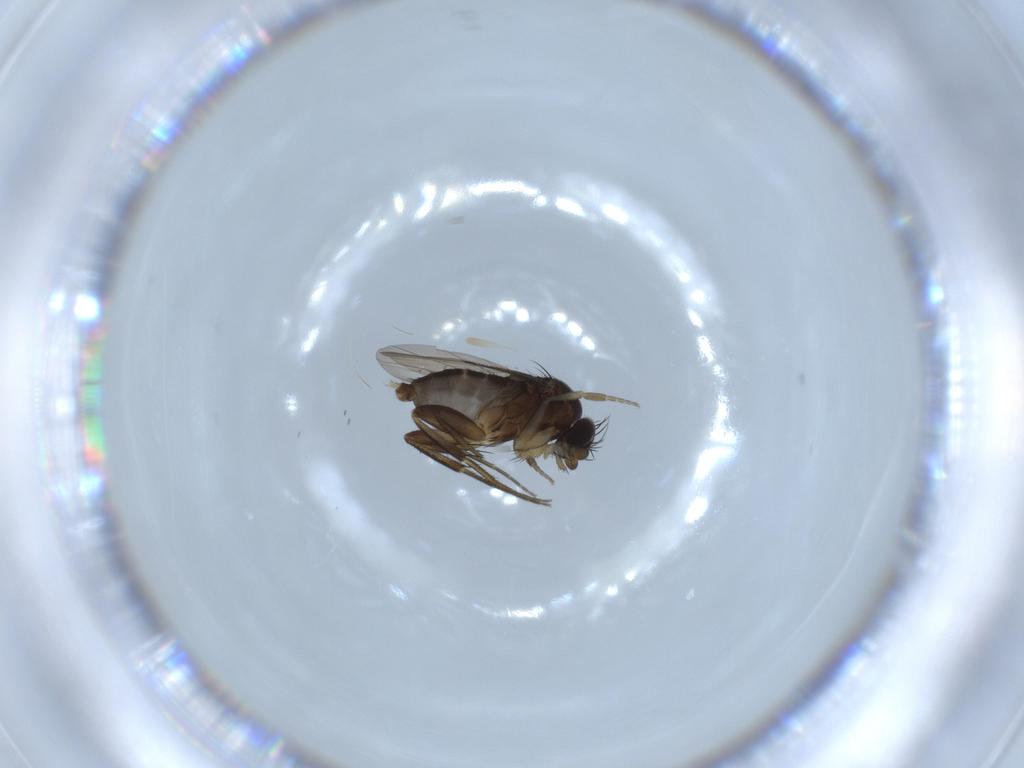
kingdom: Animalia
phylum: Arthropoda
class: Insecta
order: Diptera
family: Phoridae
